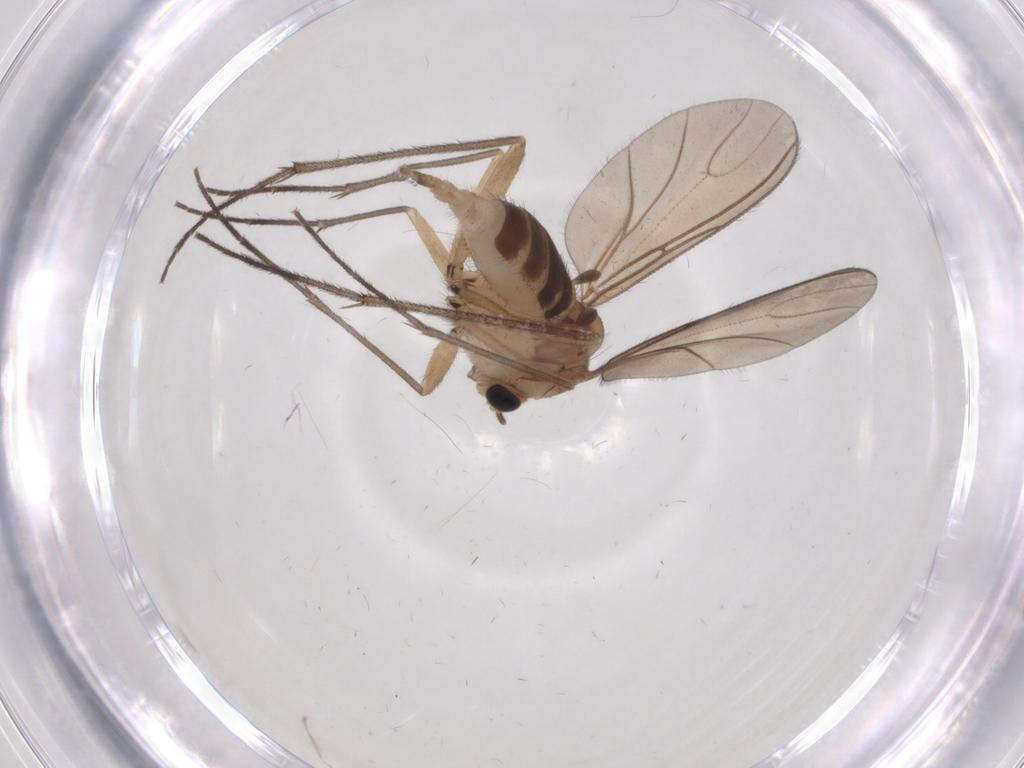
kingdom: Animalia
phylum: Arthropoda
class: Insecta
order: Diptera
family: Sciaridae
